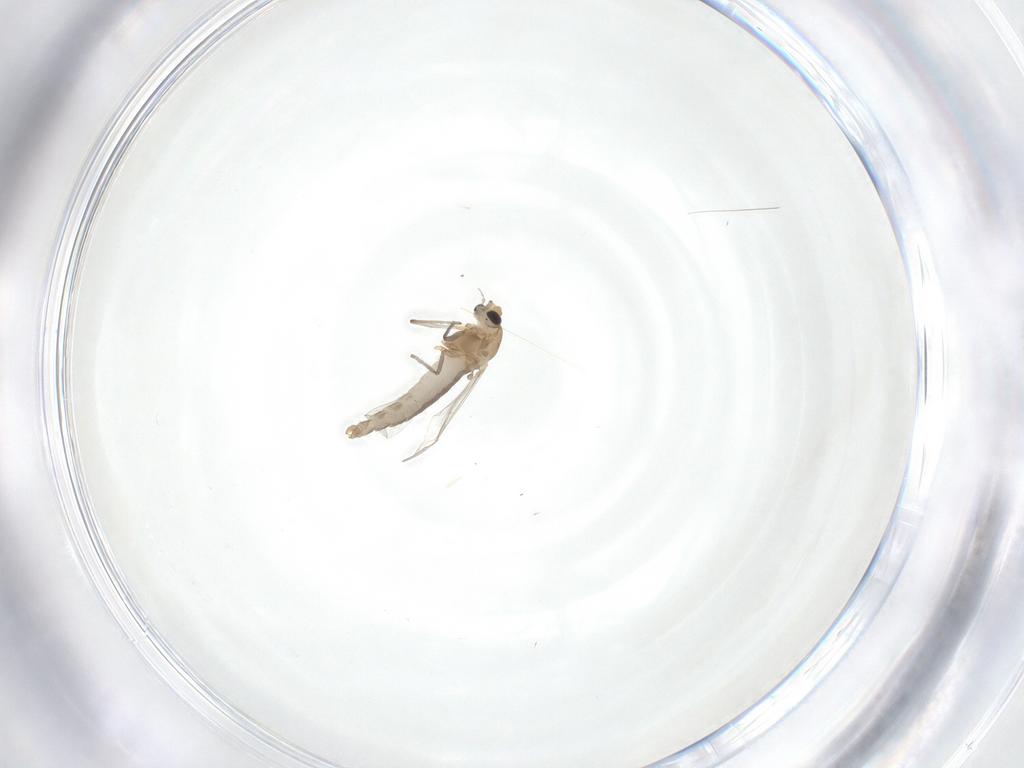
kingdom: Animalia
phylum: Arthropoda
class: Insecta
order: Diptera
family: Chironomidae
